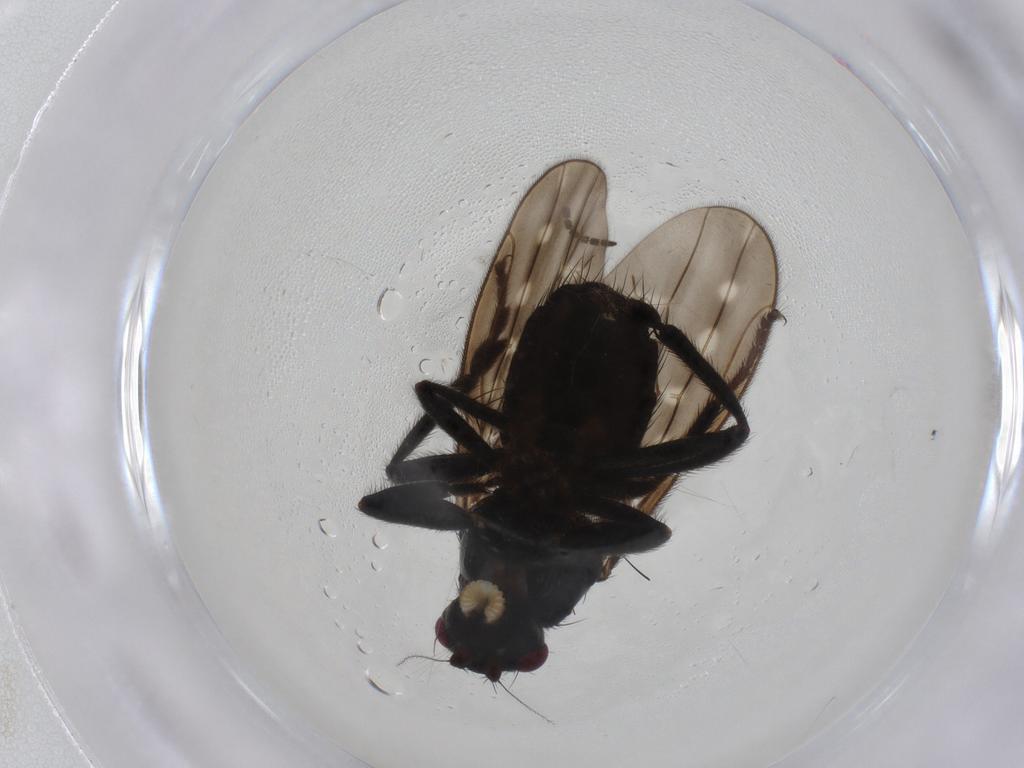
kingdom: Animalia
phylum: Arthropoda
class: Insecta
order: Diptera
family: Sphaeroceridae
